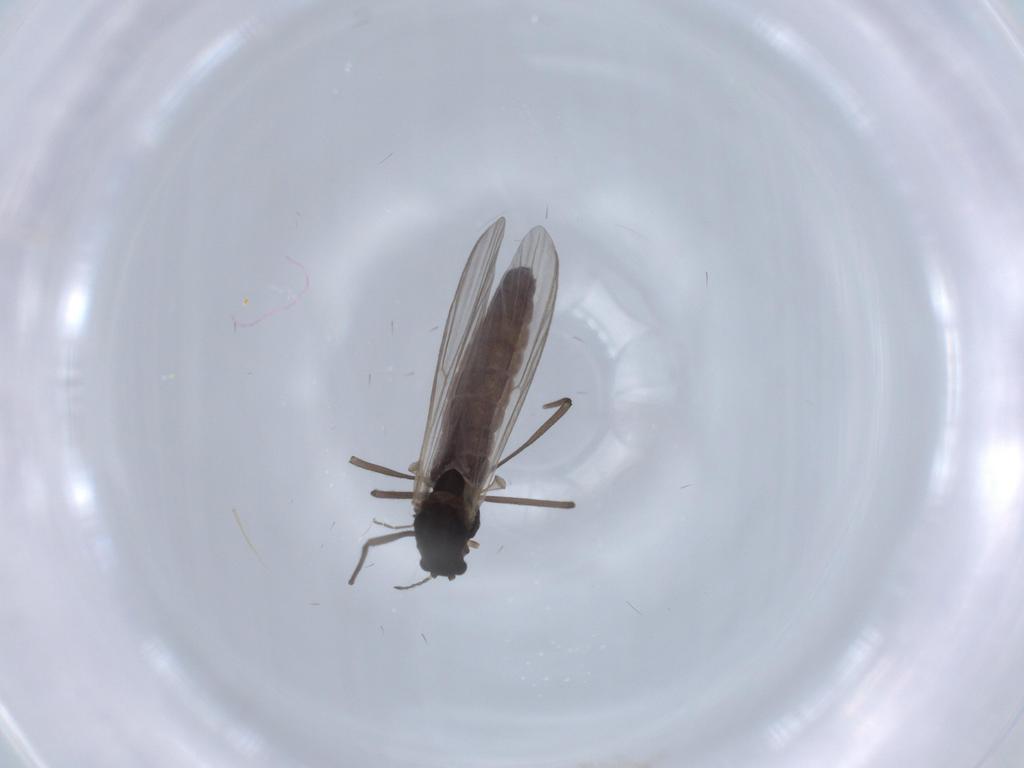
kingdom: Animalia
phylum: Arthropoda
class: Insecta
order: Diptera
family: Chironomidae
